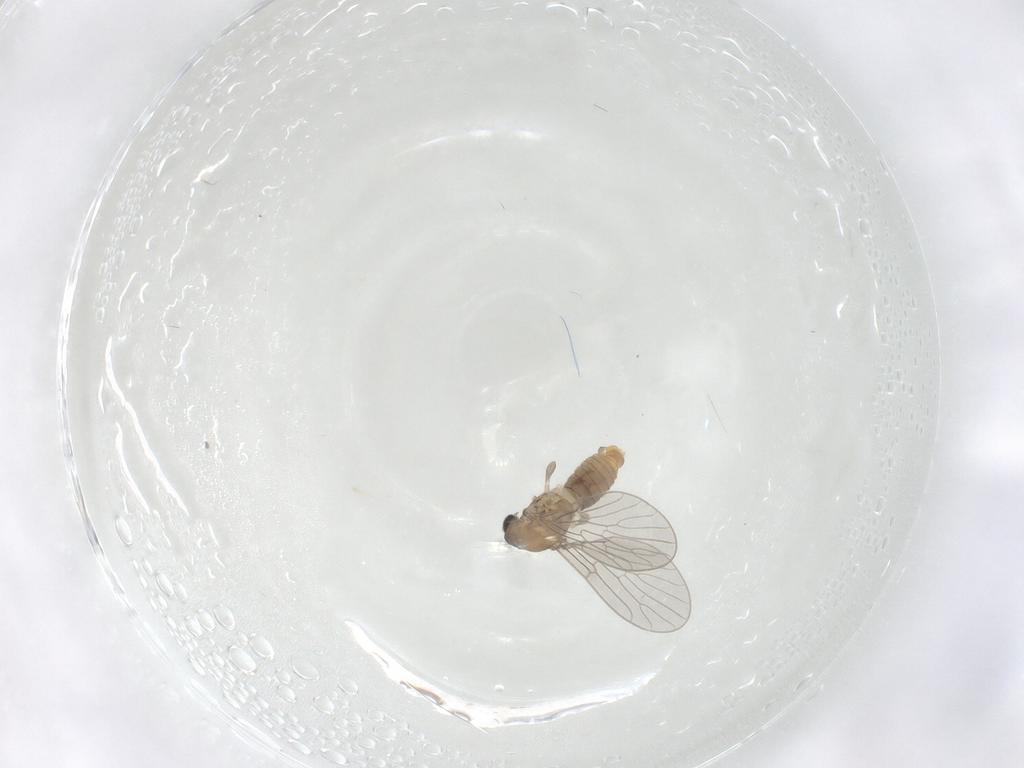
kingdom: Animalia
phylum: Arthropoda
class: Insecta
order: Diptera
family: Psychodidae
